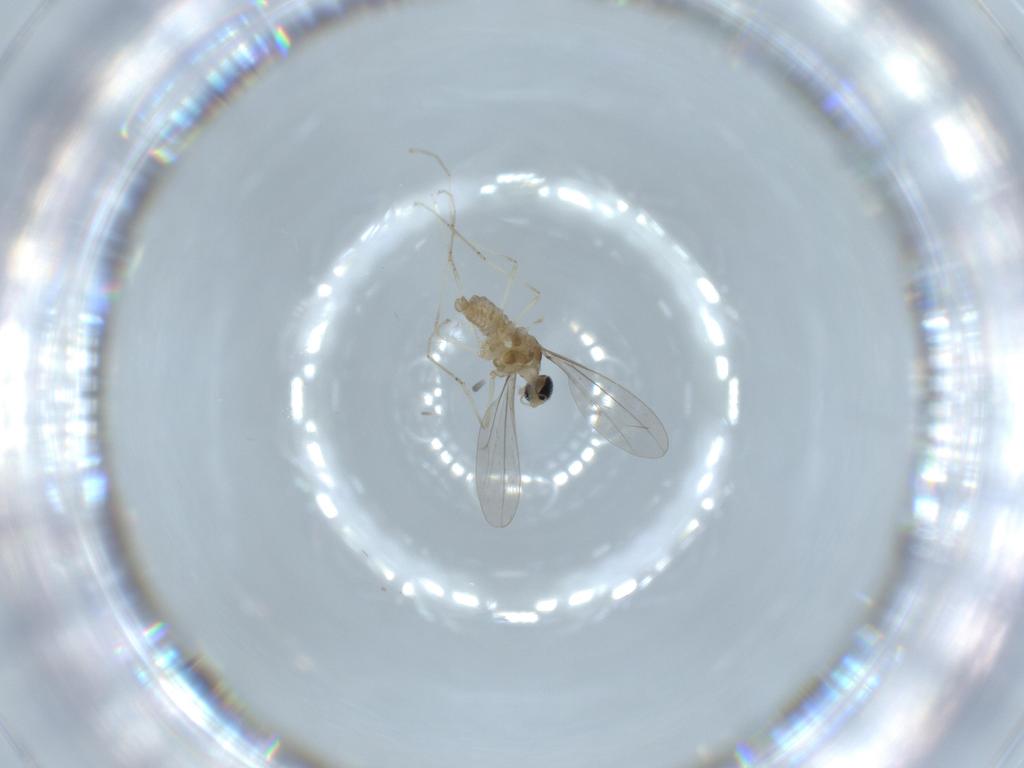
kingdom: Animalia
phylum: Arthropoda
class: Insecta
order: Diptera
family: Cecidomyiidae
